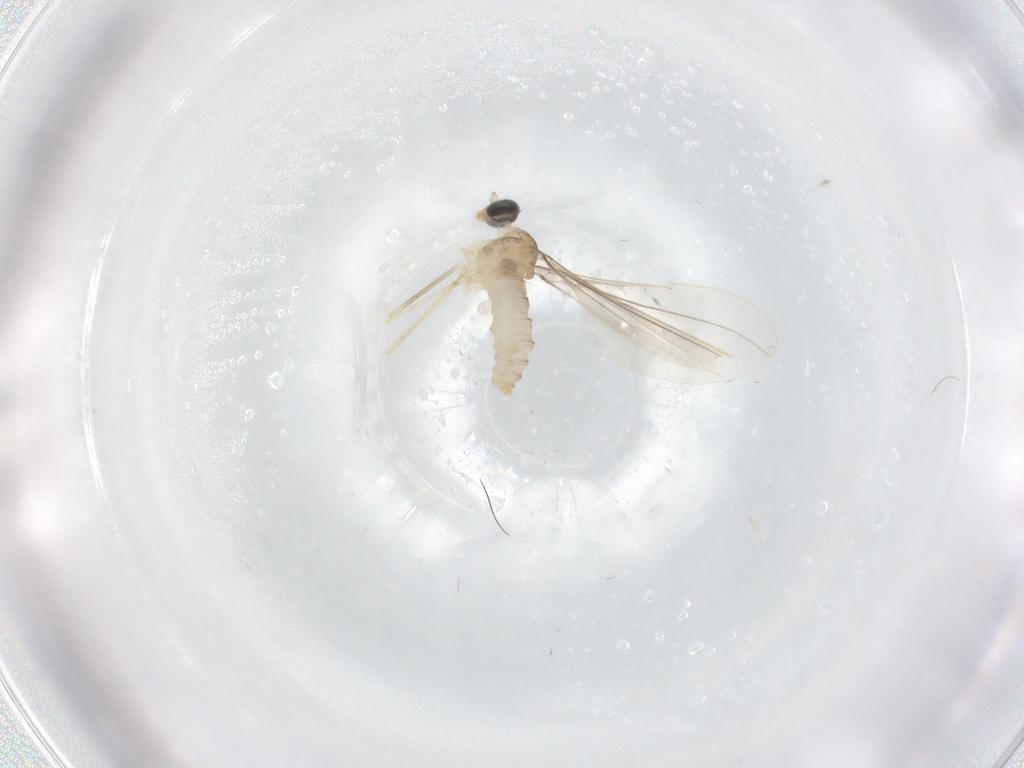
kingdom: Animalia
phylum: Arthropoda
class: Insecta
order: Diptera
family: Cecidomyiidae
